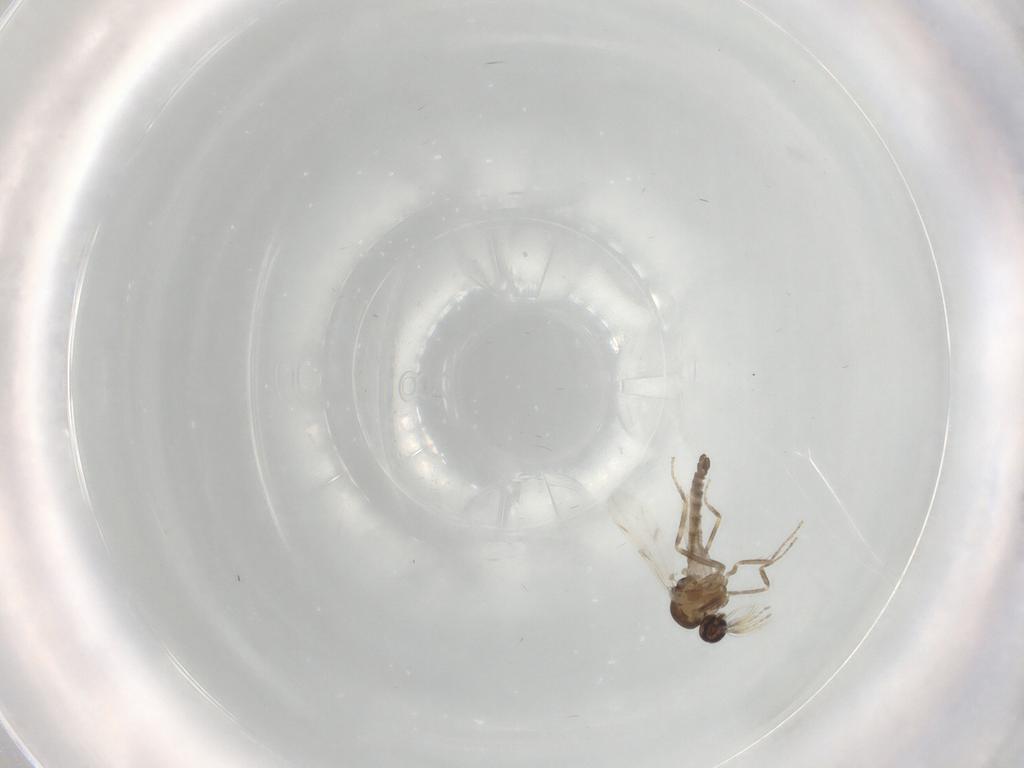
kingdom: Animalia
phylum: Arthropoda
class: Insecta
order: Diptera
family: Ceratopogonidae
